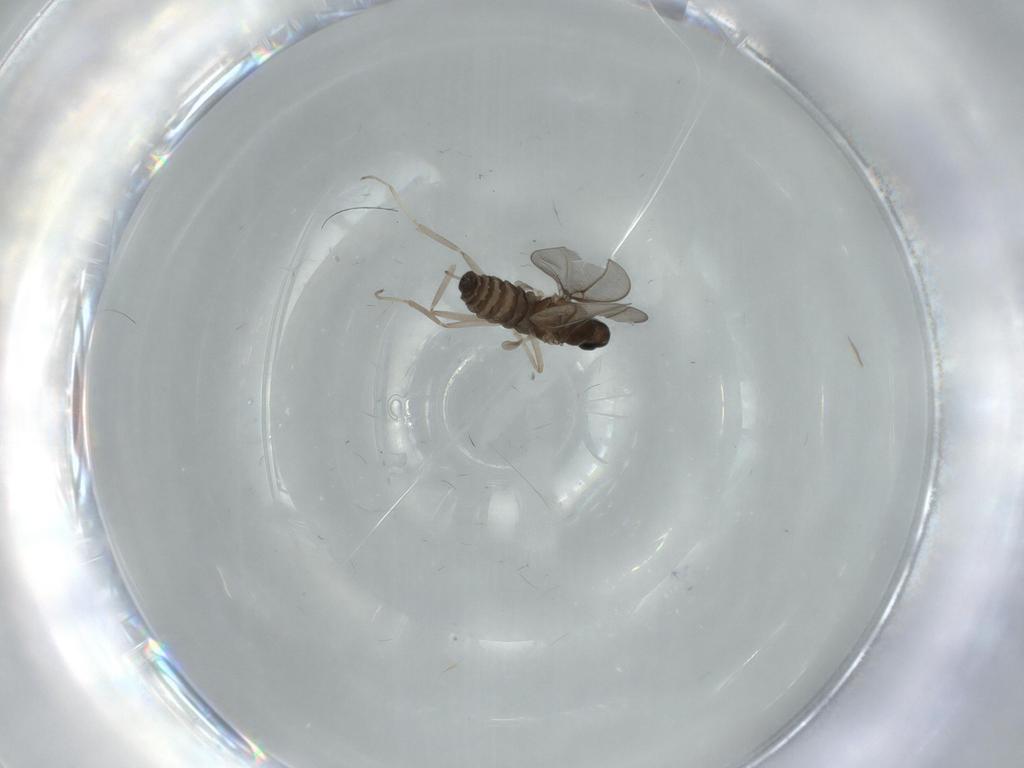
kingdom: Animalia
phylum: Arthropoda
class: Insecta
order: Diptera
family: Cecidomyiidae
